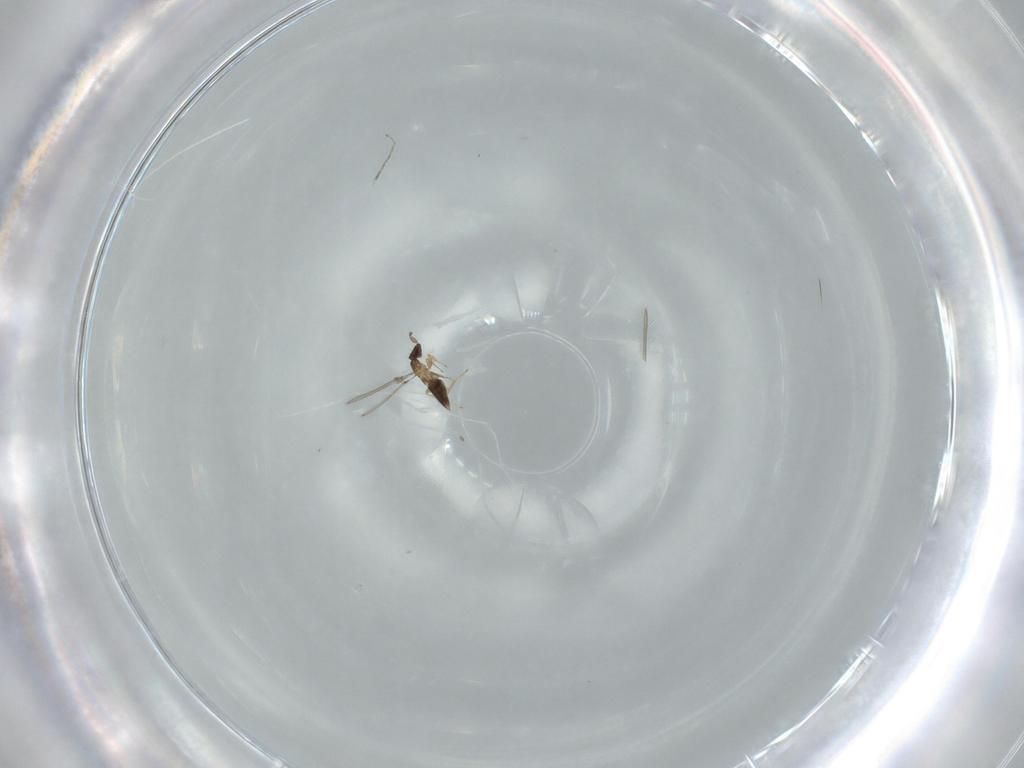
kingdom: Animalia
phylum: Arthropoda
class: Insecta
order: Hymenoptera
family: Mymaridae
